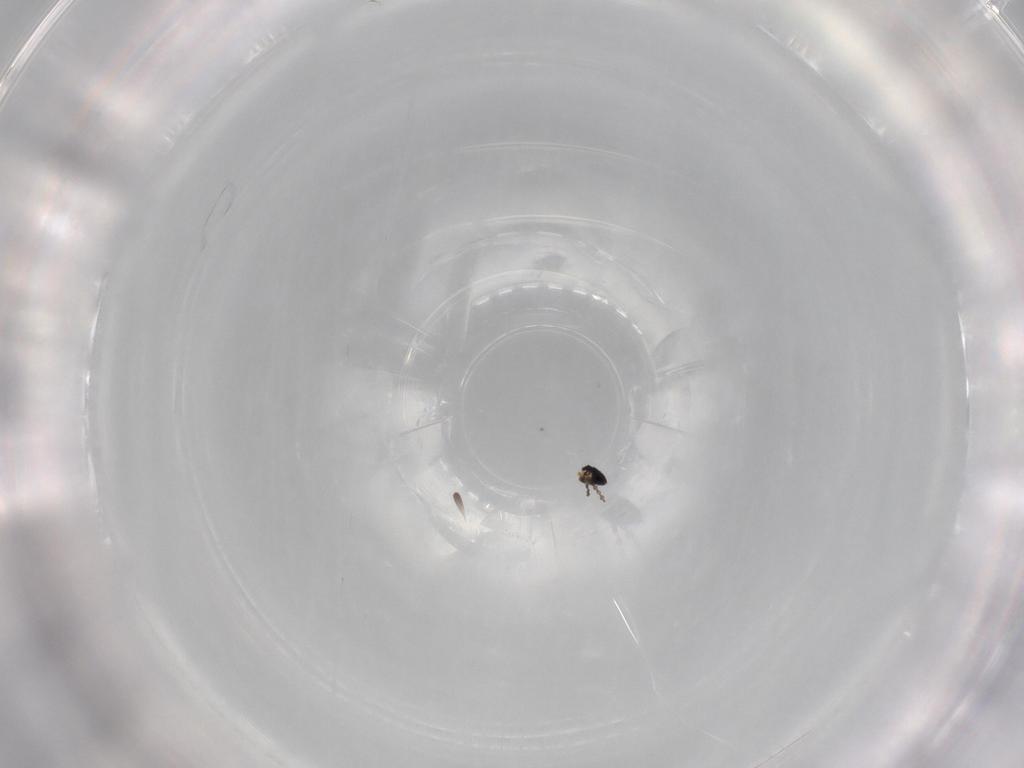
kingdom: Animalia
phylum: Arthropoda
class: Insecta
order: Diptera
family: Cecidomyiidae
